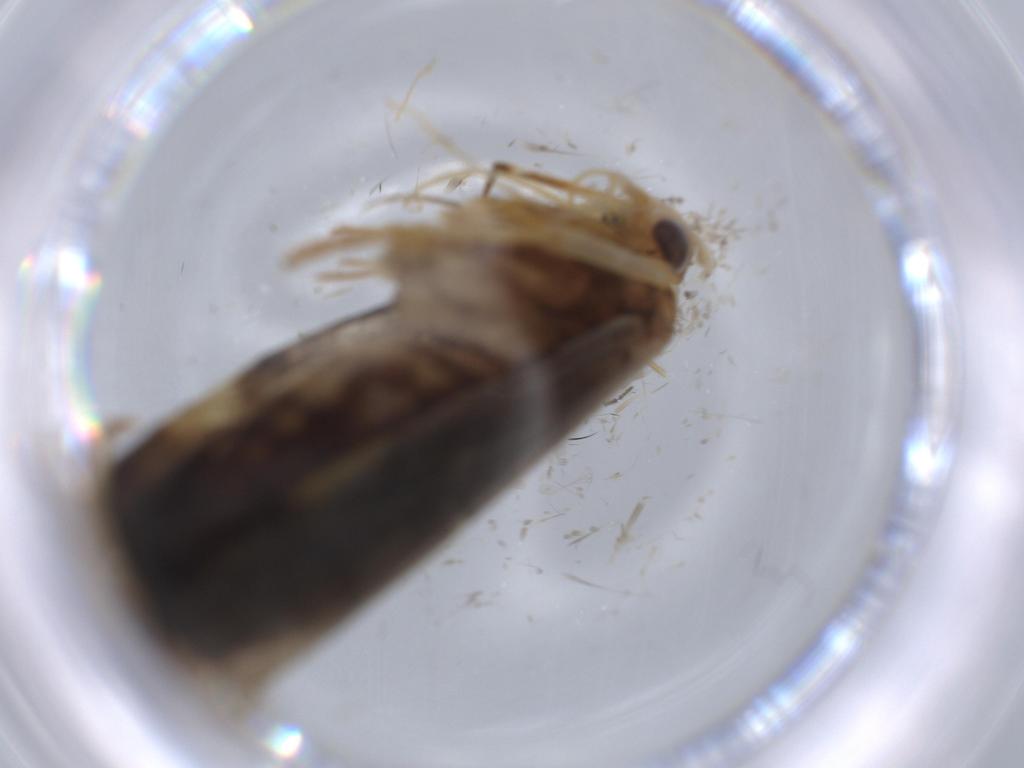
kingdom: Animalia
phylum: Arthropoda
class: Insecta
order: Lepidoptera
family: Lecithoceridae
